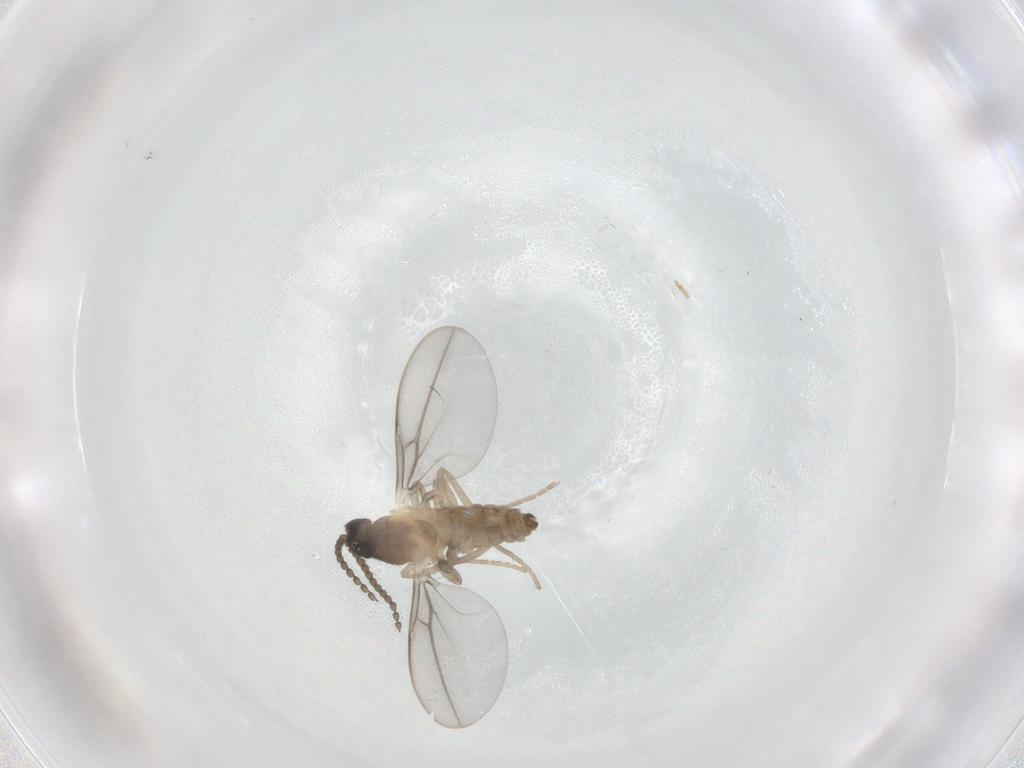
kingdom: Animalia
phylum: Arthropoda
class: Insecta
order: Diptera
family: Cecidomyiidae
